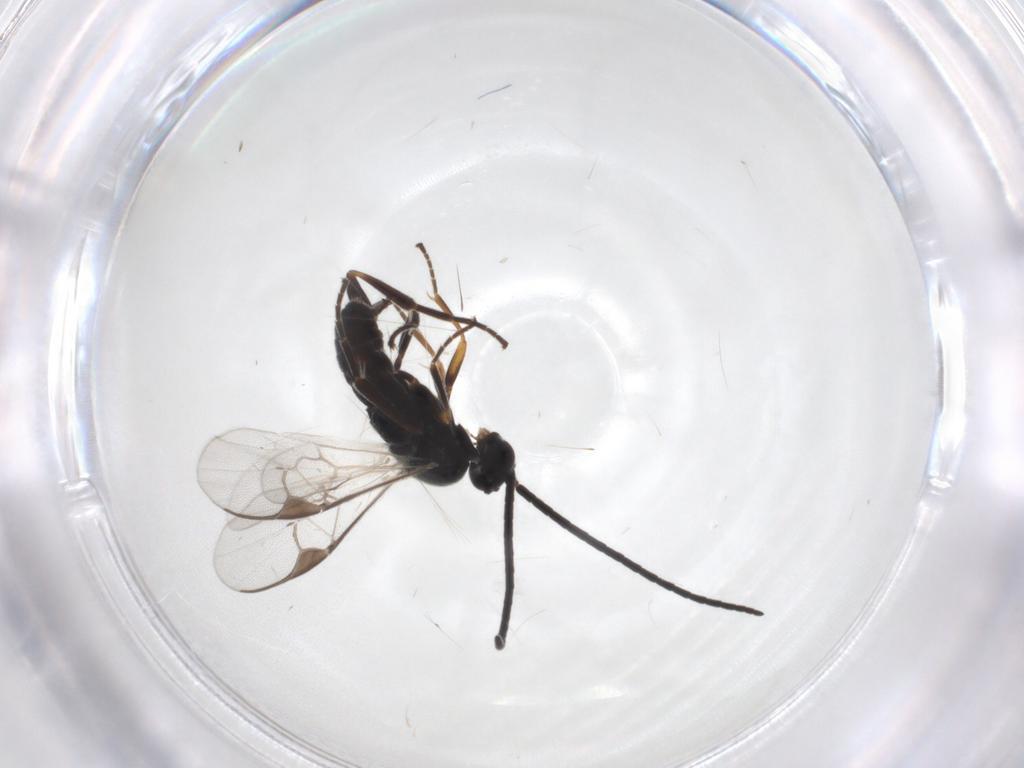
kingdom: Animalia
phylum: Arthropoda
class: Insecta
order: Hymenoptera
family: Braconidae
